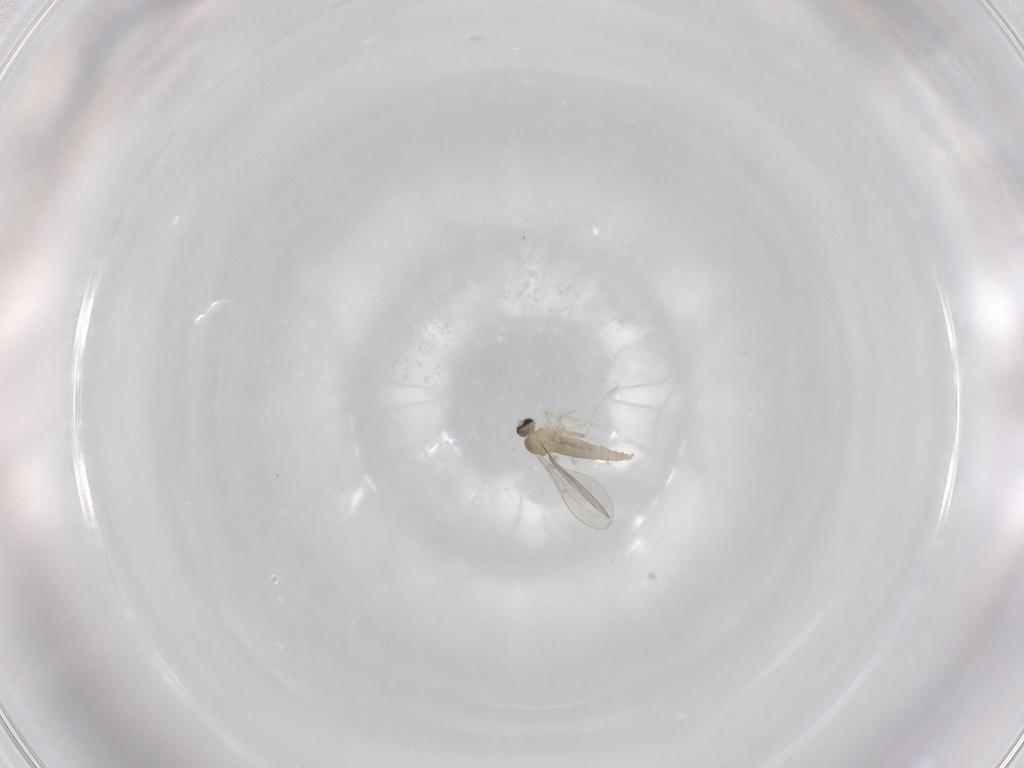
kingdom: Animalia
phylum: Arthropoda
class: Insecta
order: Diptera
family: Cecidomyiidae
